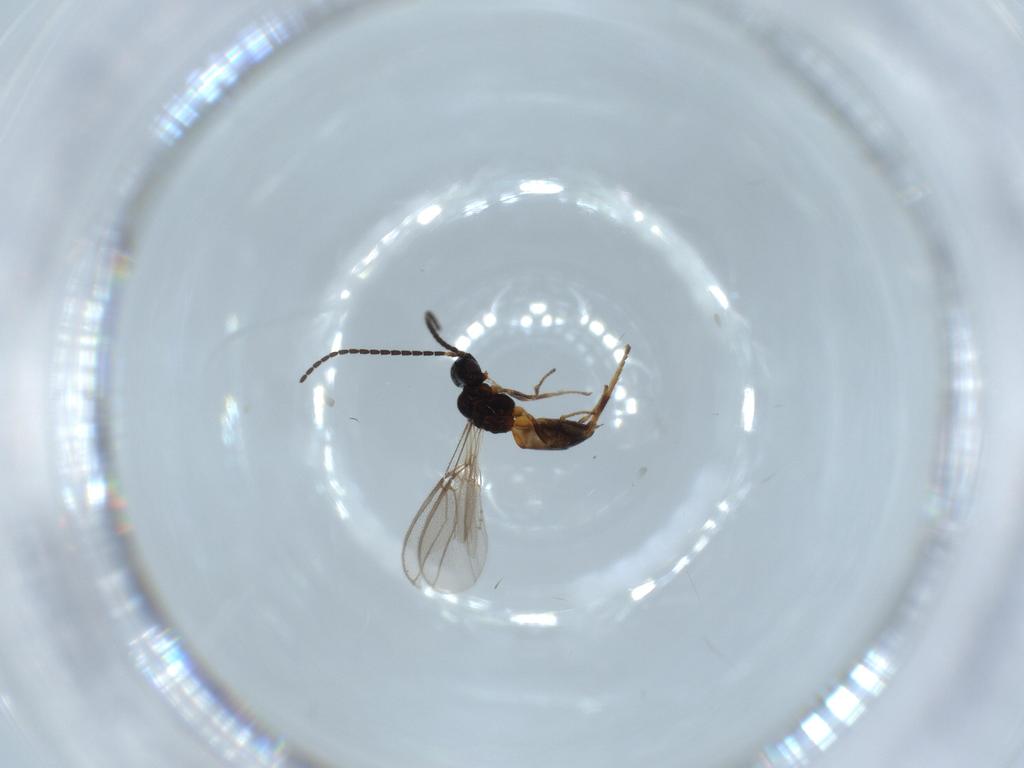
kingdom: Animalia
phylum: Arthropoda
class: Insecta
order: Hymenoptera
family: Braconidae
